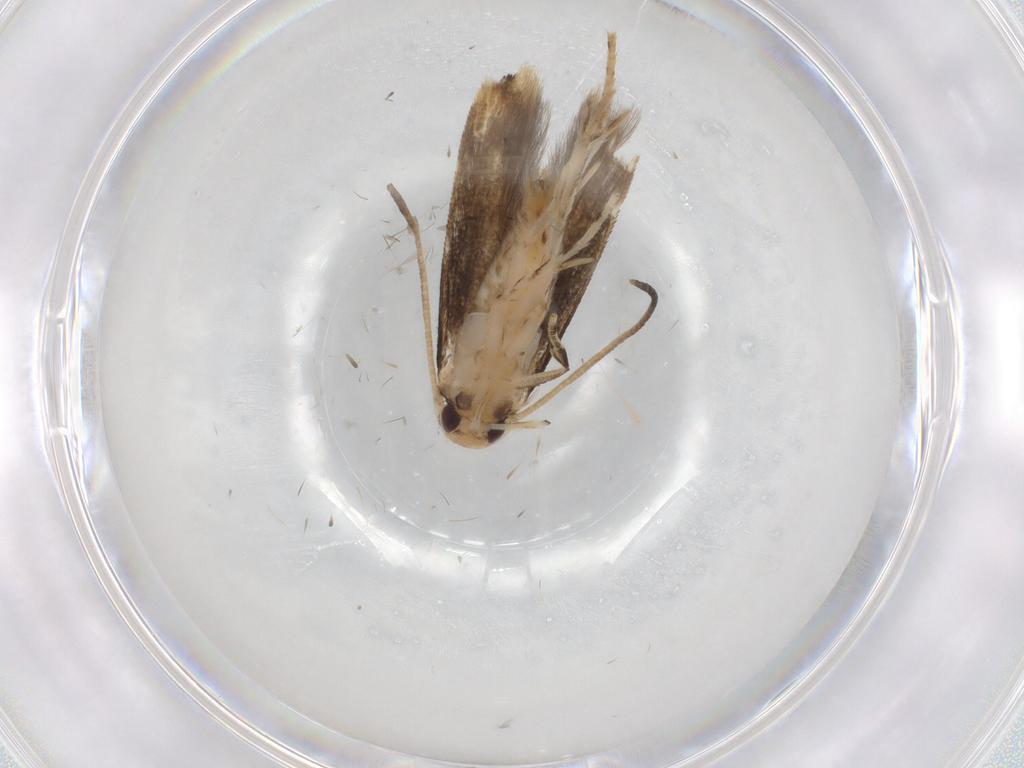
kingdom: Animalia
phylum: Arthropoda
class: Insecta
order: Lepidoptera
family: Momphidae
